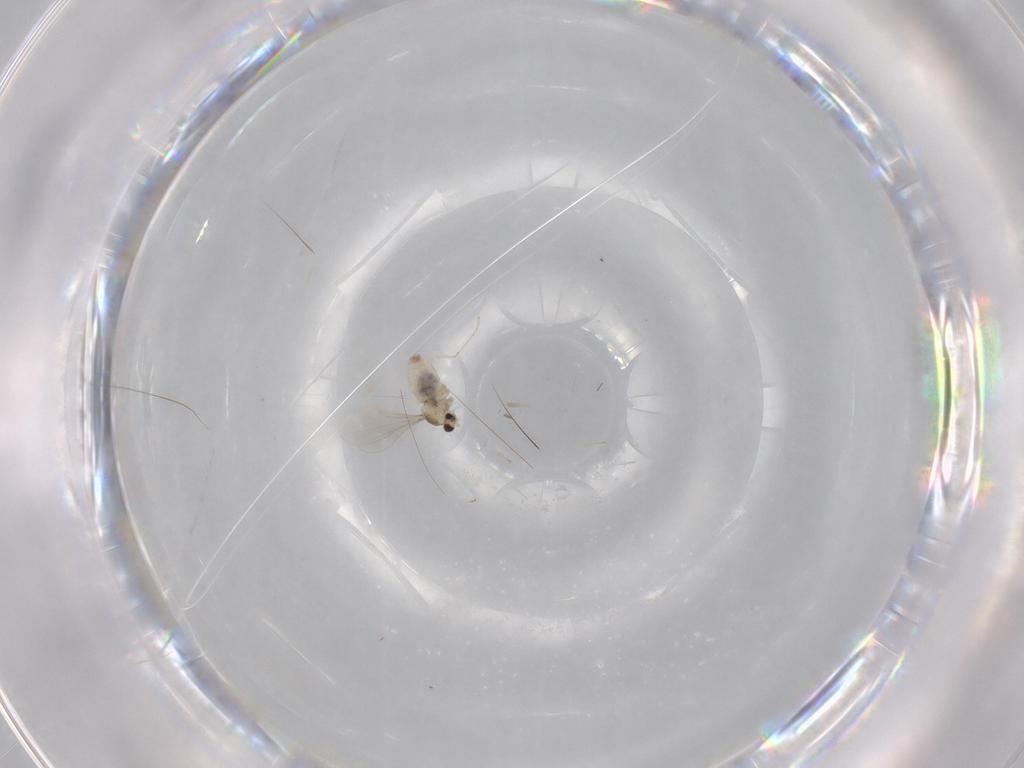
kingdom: Animalia
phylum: Arthropoda
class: Insecta
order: Diptera
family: Cecidomyiidae
